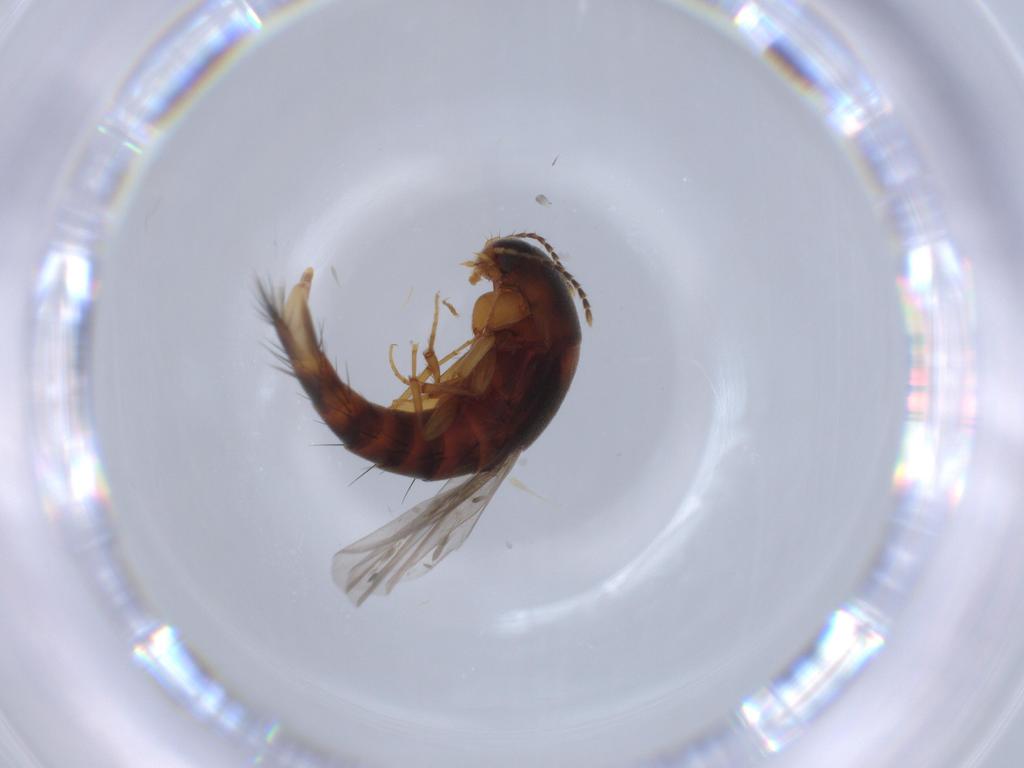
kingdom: Animalia
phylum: Arthropoda
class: Insecta
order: Coleoptera
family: Staphylinidae
